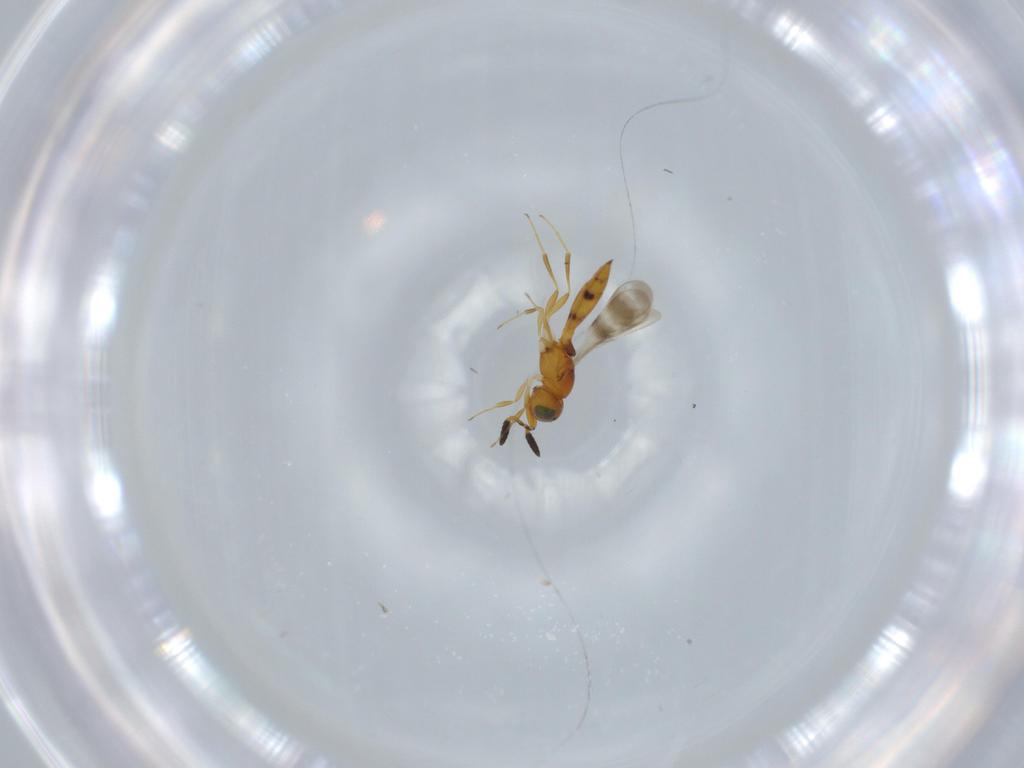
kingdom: Animalia
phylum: Arthropoda
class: Insecta
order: Hymenoptera
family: Scelionidae
